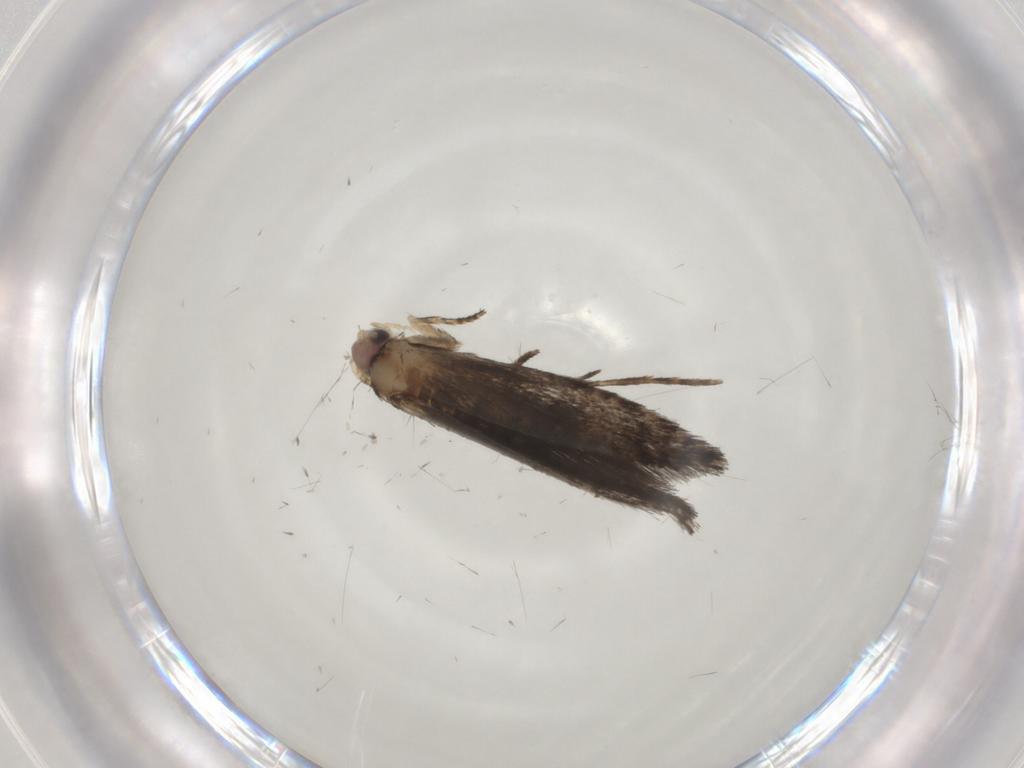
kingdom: Animalia
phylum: Arthropoda
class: Insecta
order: Lepidoptera
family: Tineidae
